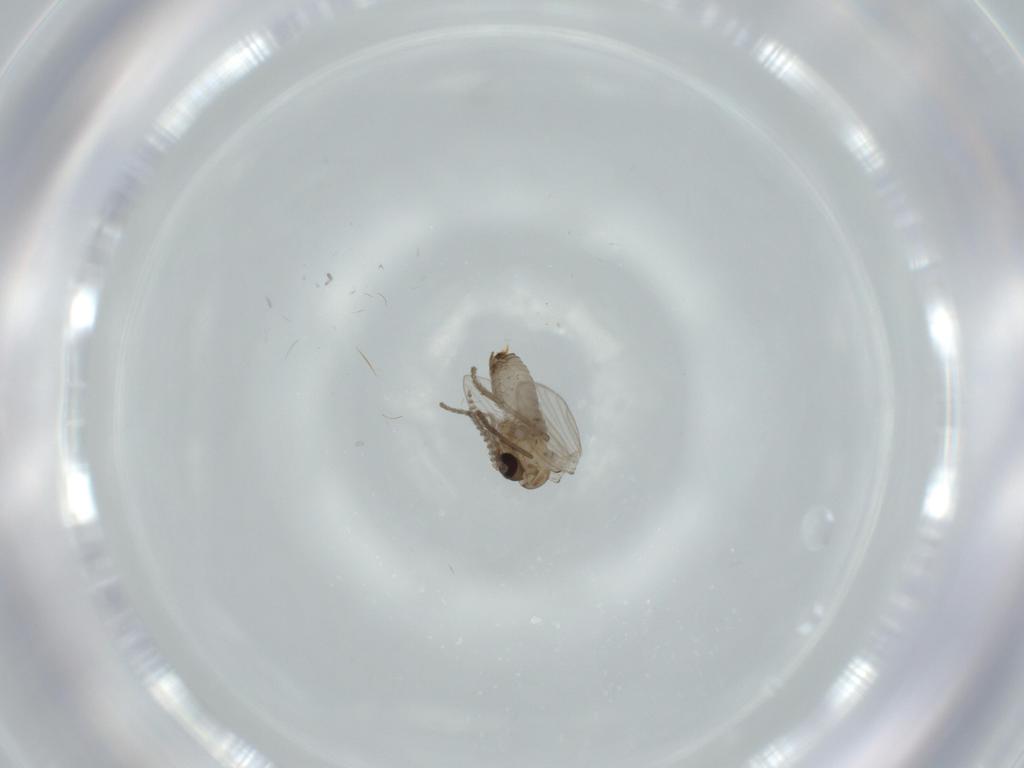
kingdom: Animalia
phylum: Arthropoda
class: Insecta
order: Diptera
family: Psychodidae
